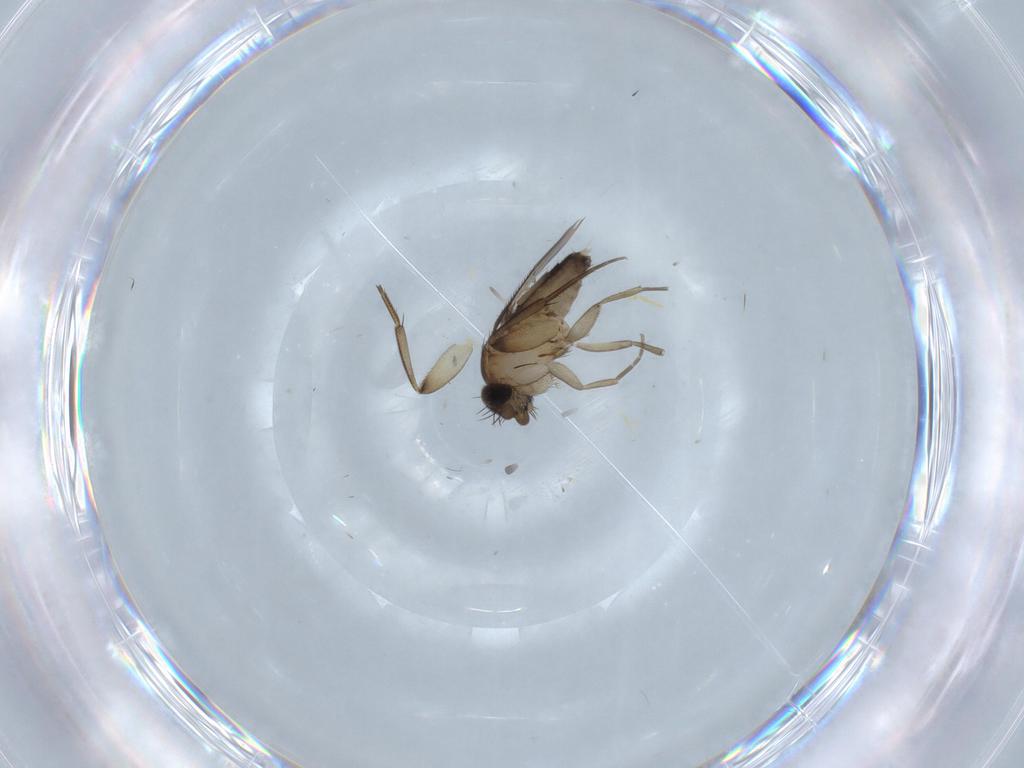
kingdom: Animalia
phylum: Arthropoda
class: Insecta
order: Diptera
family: Phoridae
